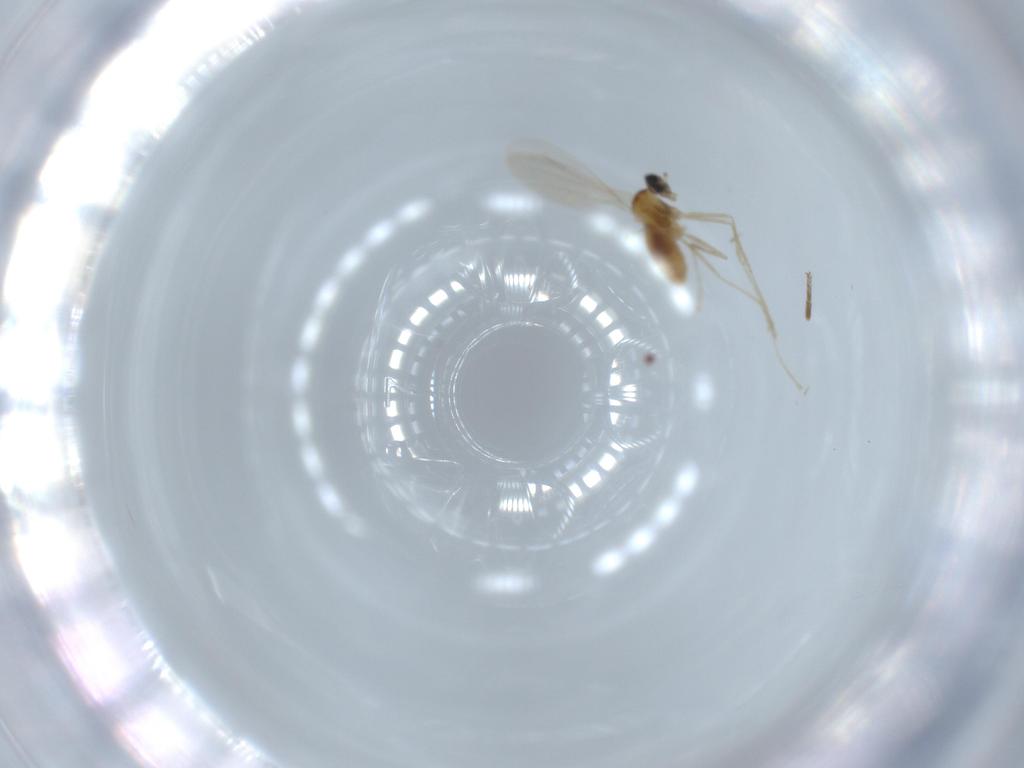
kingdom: Animalia
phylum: Arthropoda
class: Insecta
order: Diptera
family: Cecidomyiidae
